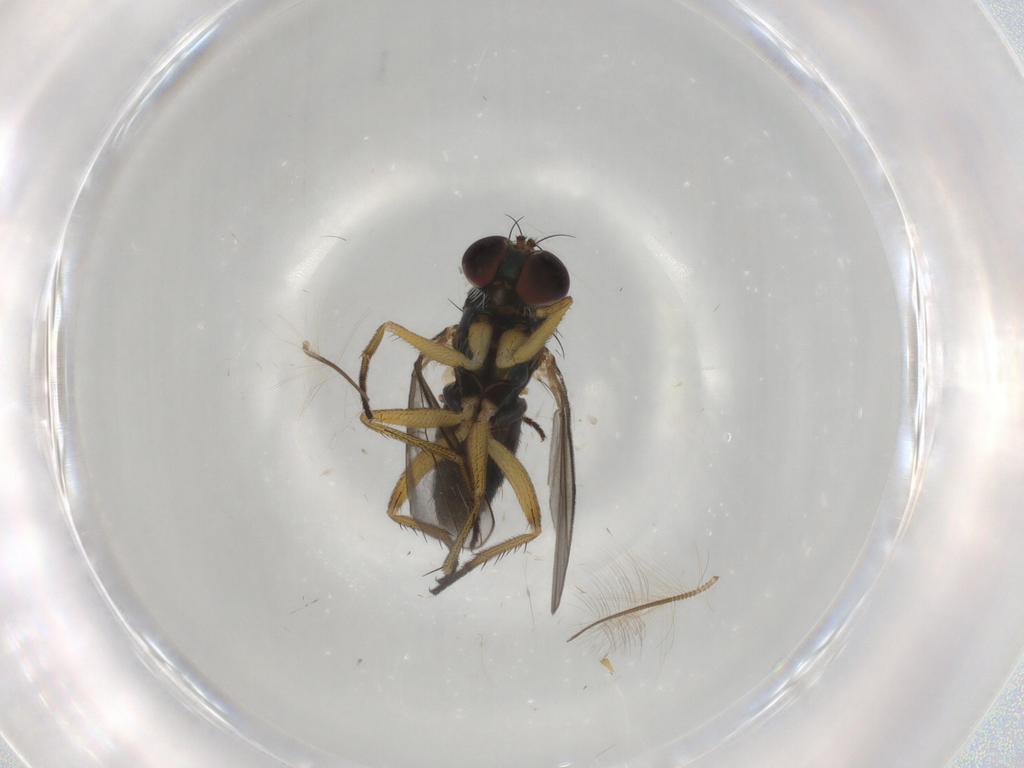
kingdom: Animalia
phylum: Arthropoda
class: Insecta
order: Diptera
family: Dolichopodidae
